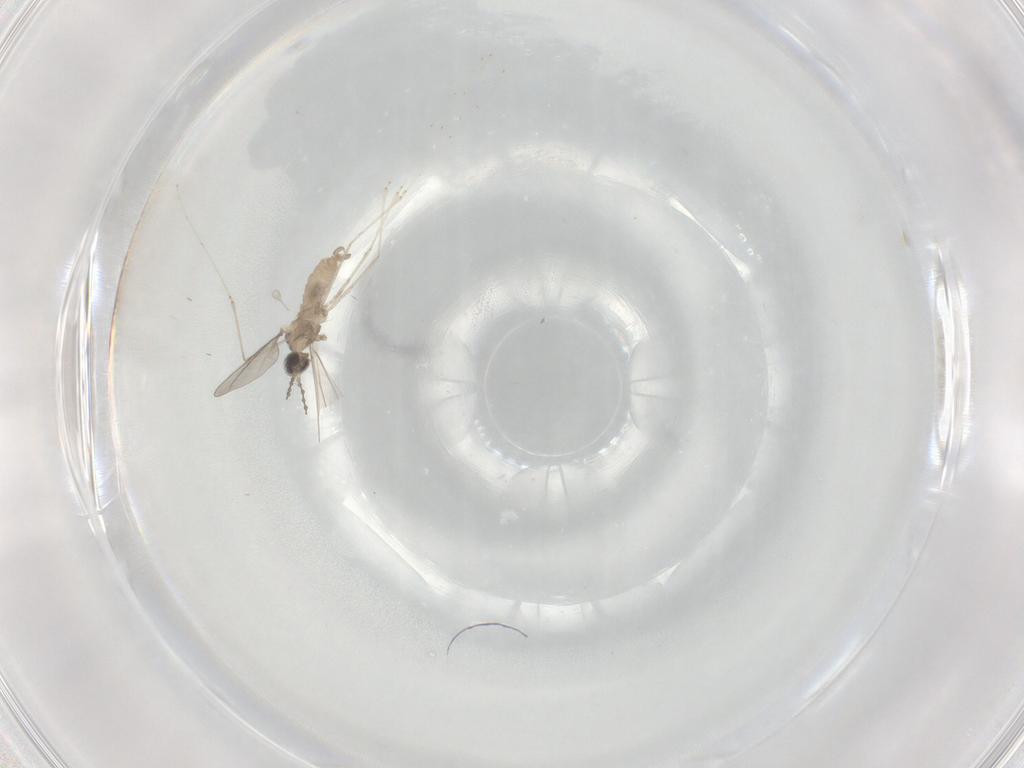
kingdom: Animalia
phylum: Arthropoda
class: Insecta
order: Diptera
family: Cecidomyiidae
